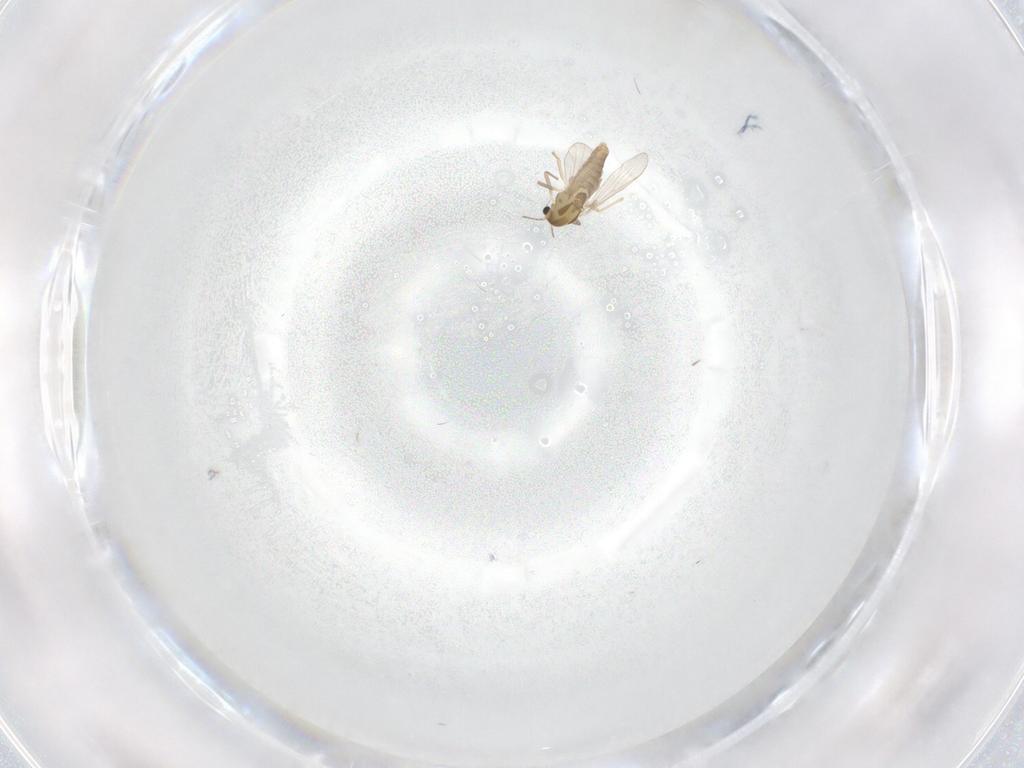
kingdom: Animalia
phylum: Arthropoda
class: Insecta
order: Diptera
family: Chironomidae
